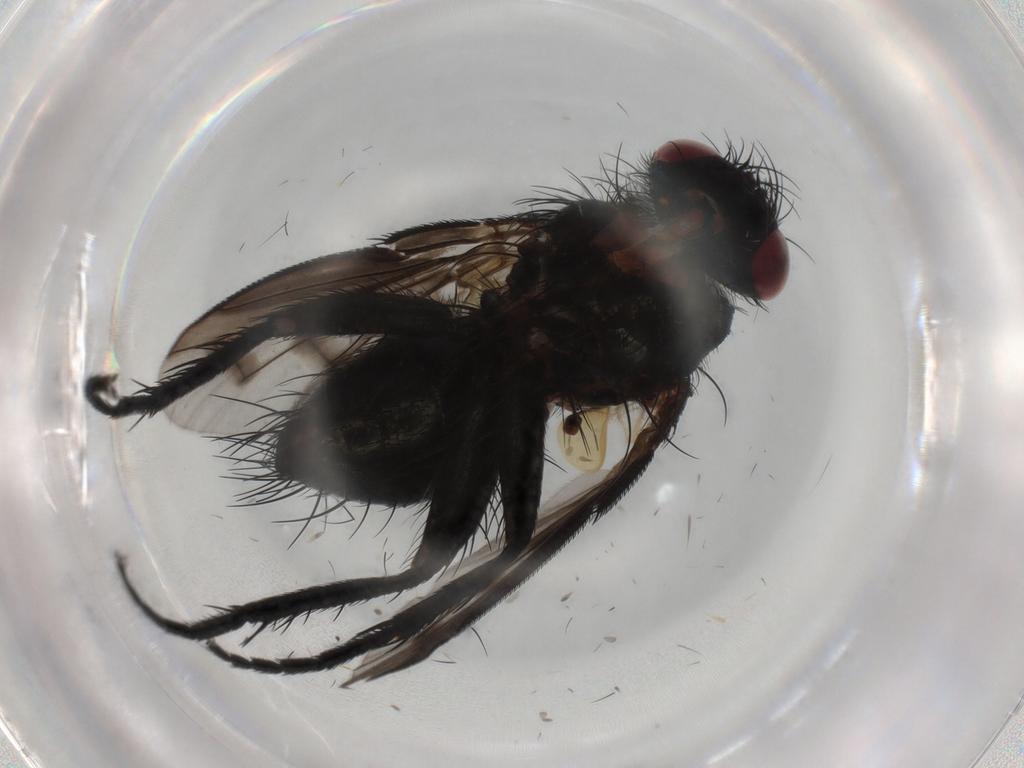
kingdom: Animalia
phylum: Arthropoda
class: Insecta
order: Diptera
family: Tachinidae
